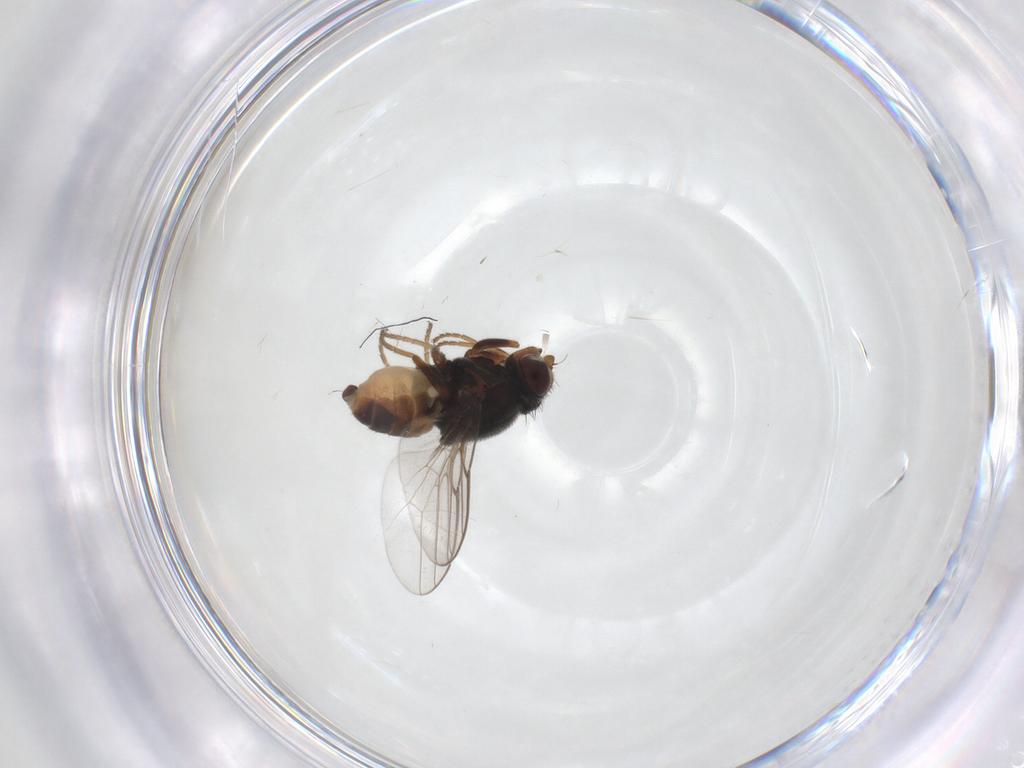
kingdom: Animalia
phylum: Arthropoda
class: Insecta
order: Diptera
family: Chloropidae
